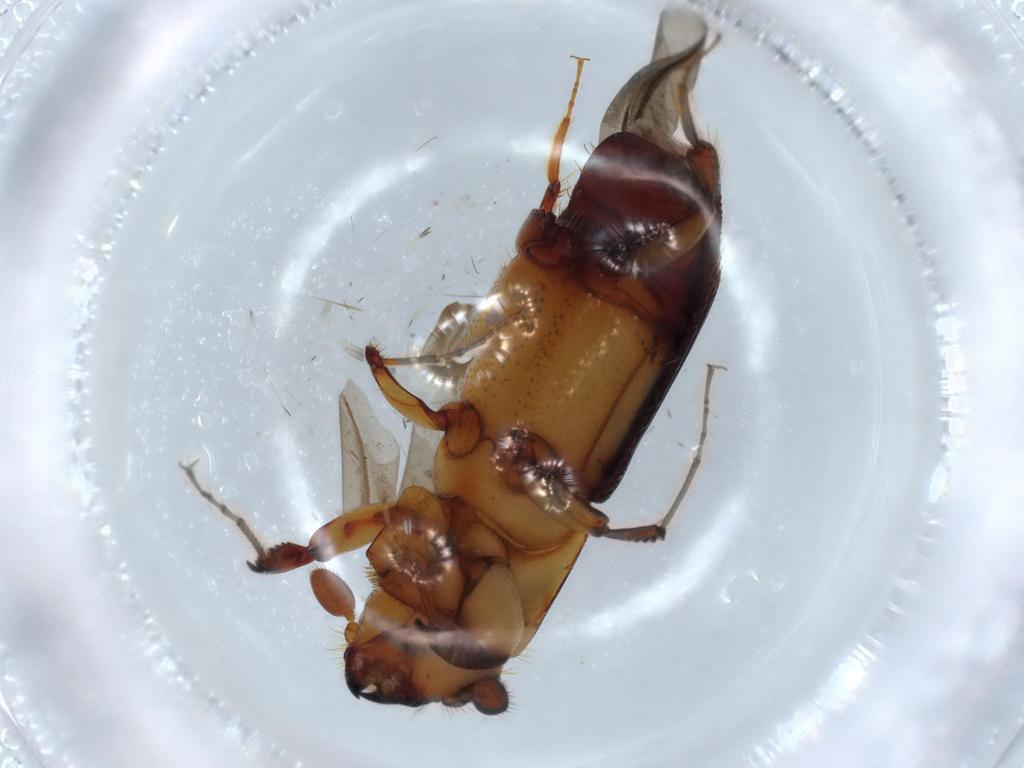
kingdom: Animalia
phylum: Arthropoda
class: Insecta
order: Coleoptera
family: Curculionidae
